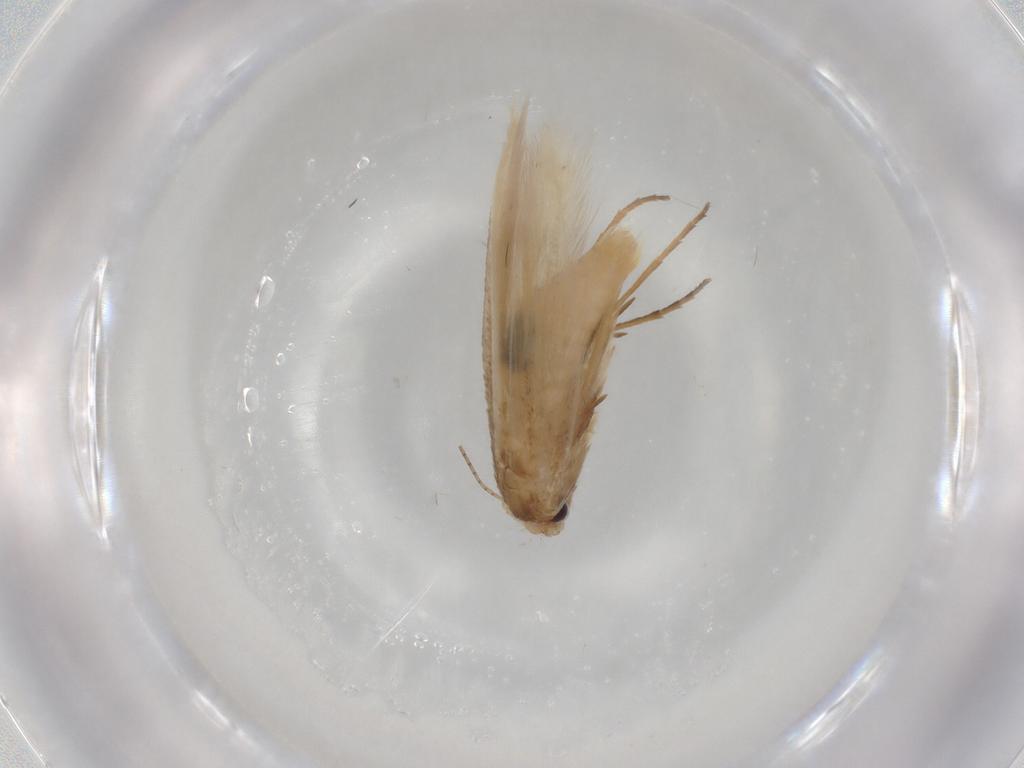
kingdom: Animalia
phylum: Arthropoda
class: Insecta
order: Lepidoptera
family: Bucculatricidae
